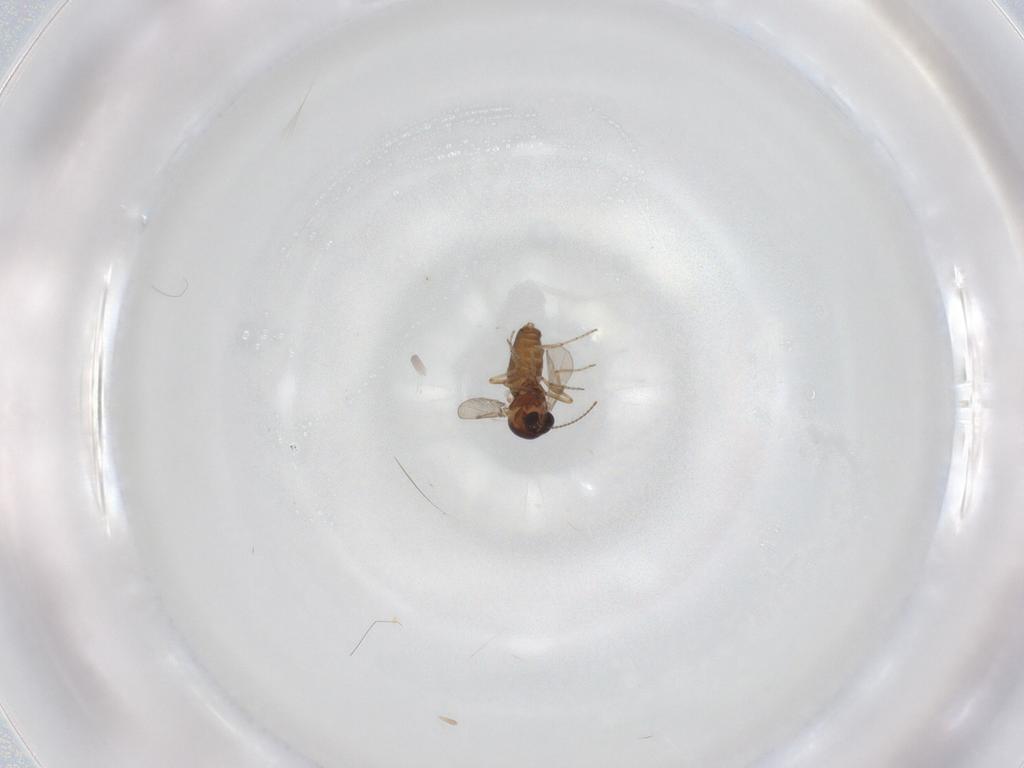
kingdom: Animalia
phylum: Arthropoda
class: Insecta
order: Diptera
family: Ceratopogonidae
